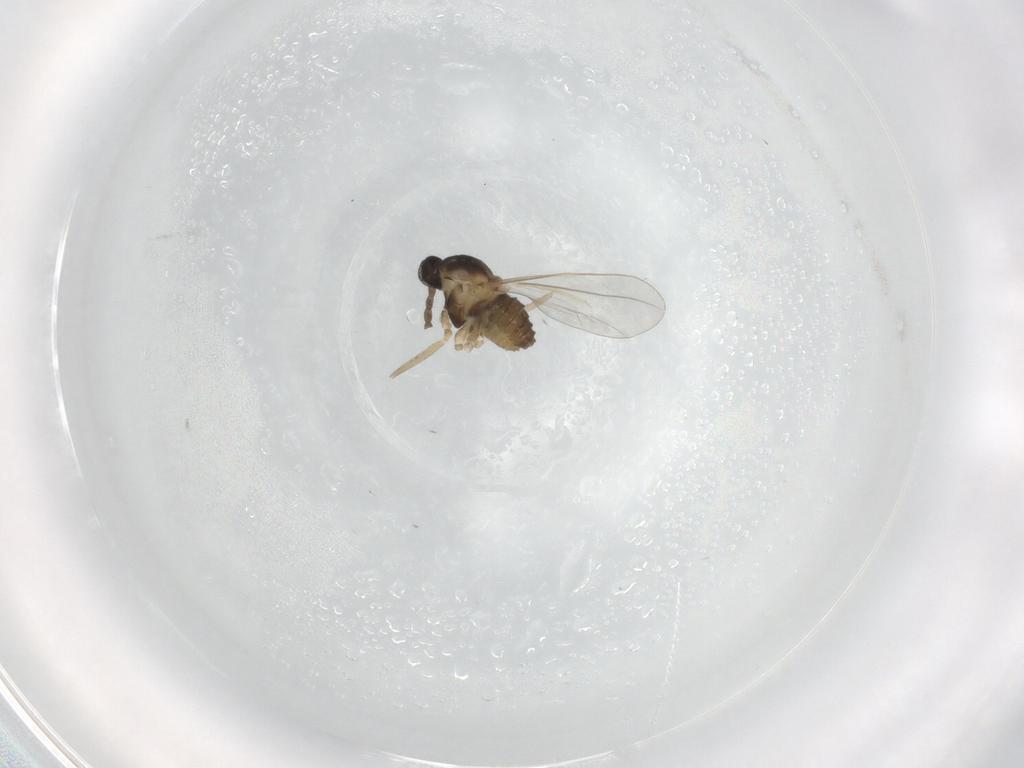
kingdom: Animalia
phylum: Arthropoda
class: Insecta
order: Diptera
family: Cecidomyiidae
